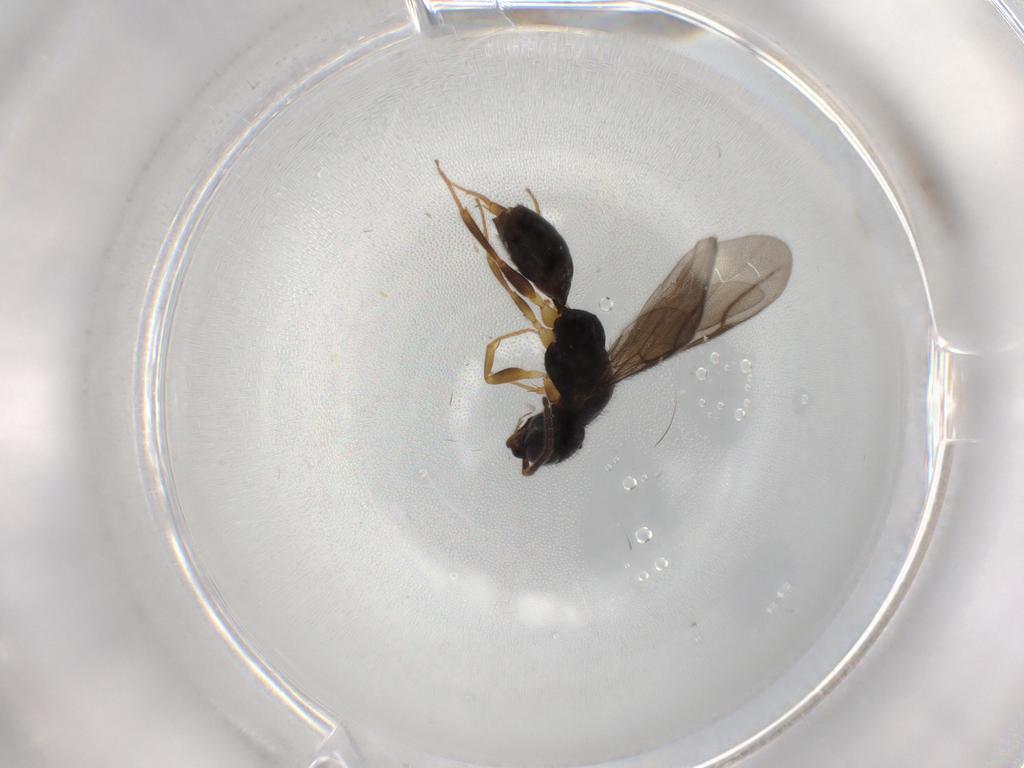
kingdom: Animalia
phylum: Arthropoda
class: Insecta
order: Hymenoptera
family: Bethylidae
